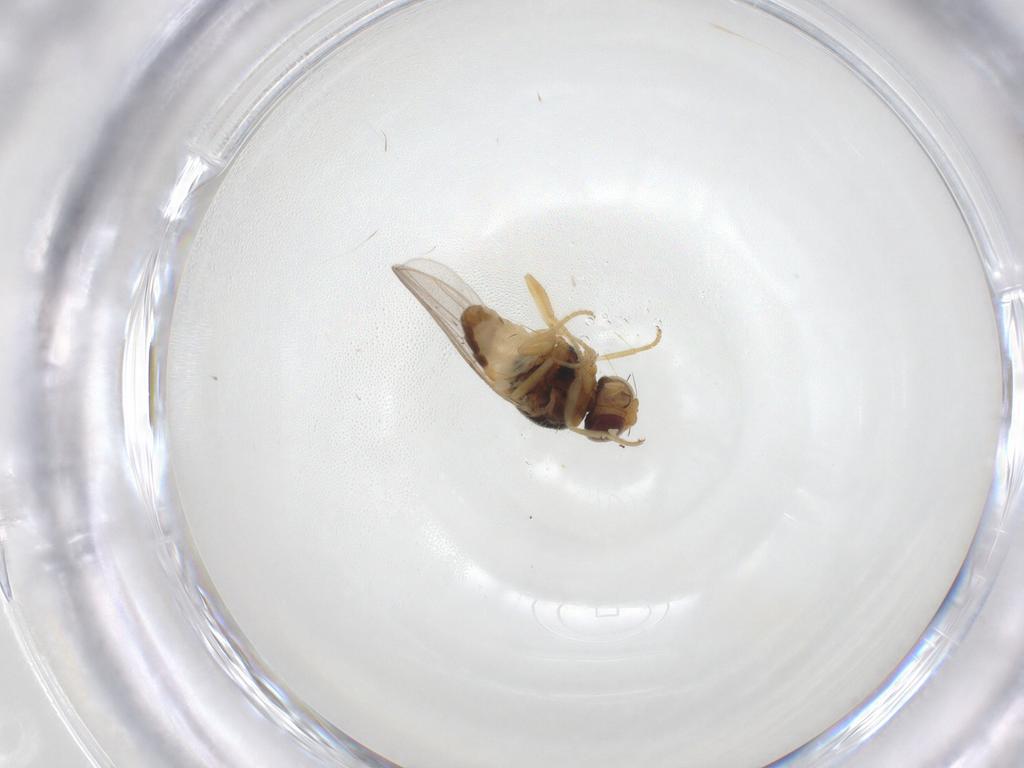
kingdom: Animalia
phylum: Arthropoda
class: Insecta
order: Diptera
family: Chloropidae
